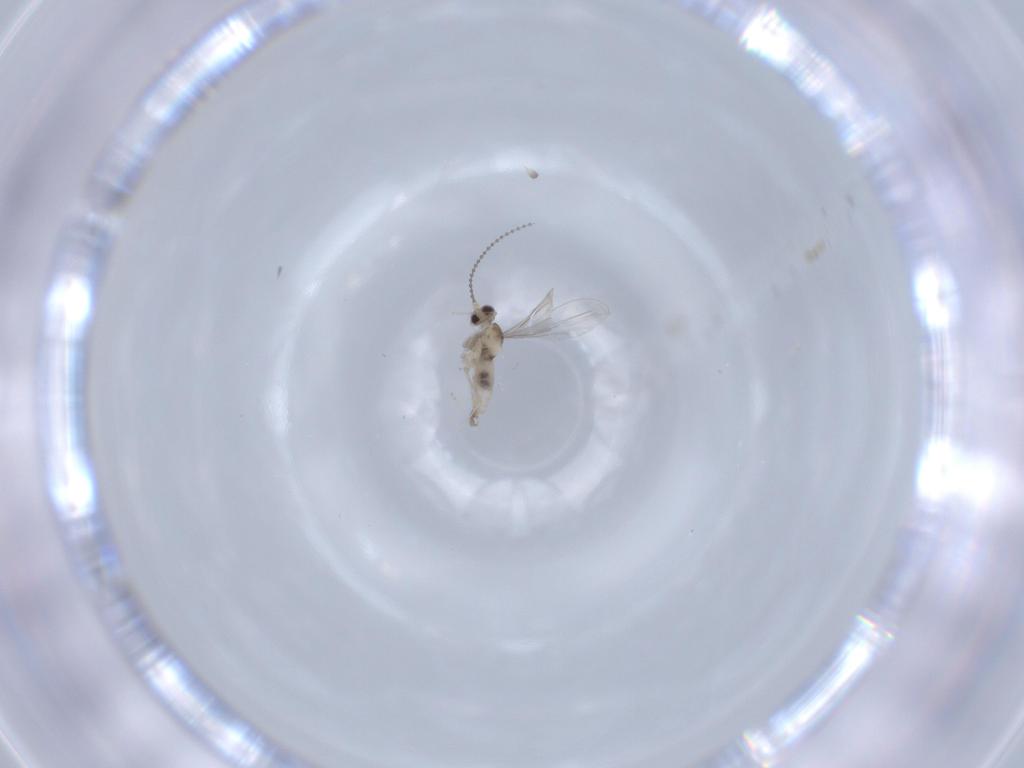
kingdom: Animalia
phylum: Arthropoda
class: Insecta
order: Diptera
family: Cecidomyiidae
